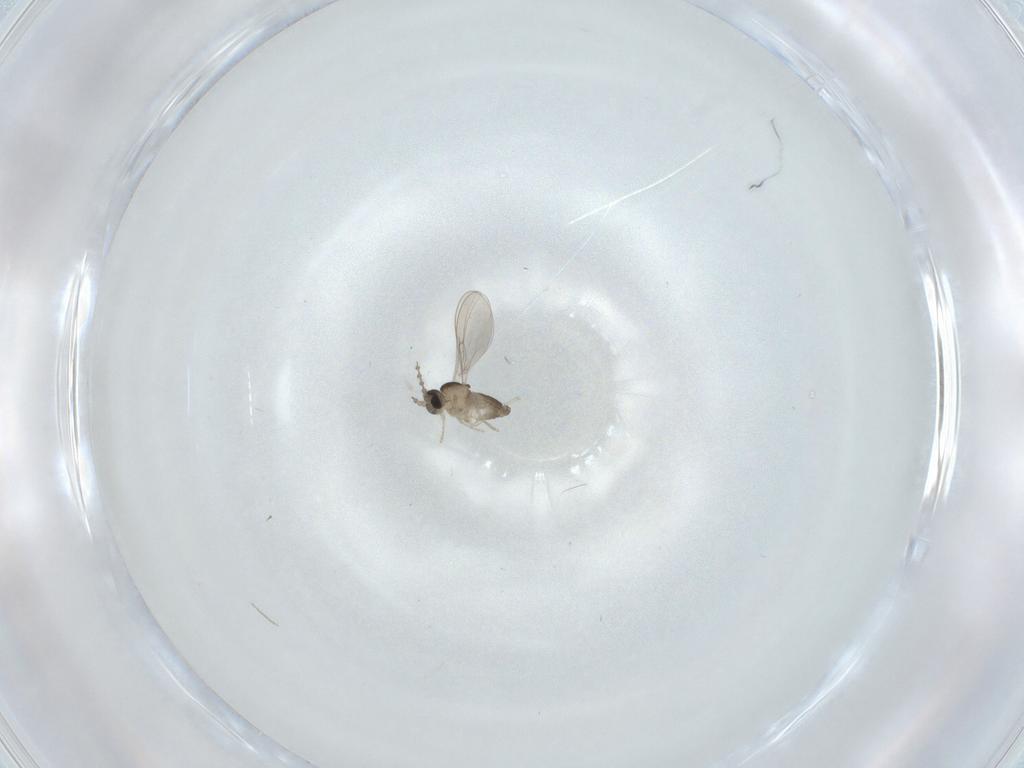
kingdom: Animalia
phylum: Arthropoda
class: Insecta
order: Diptera
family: Cecidomyiidae
